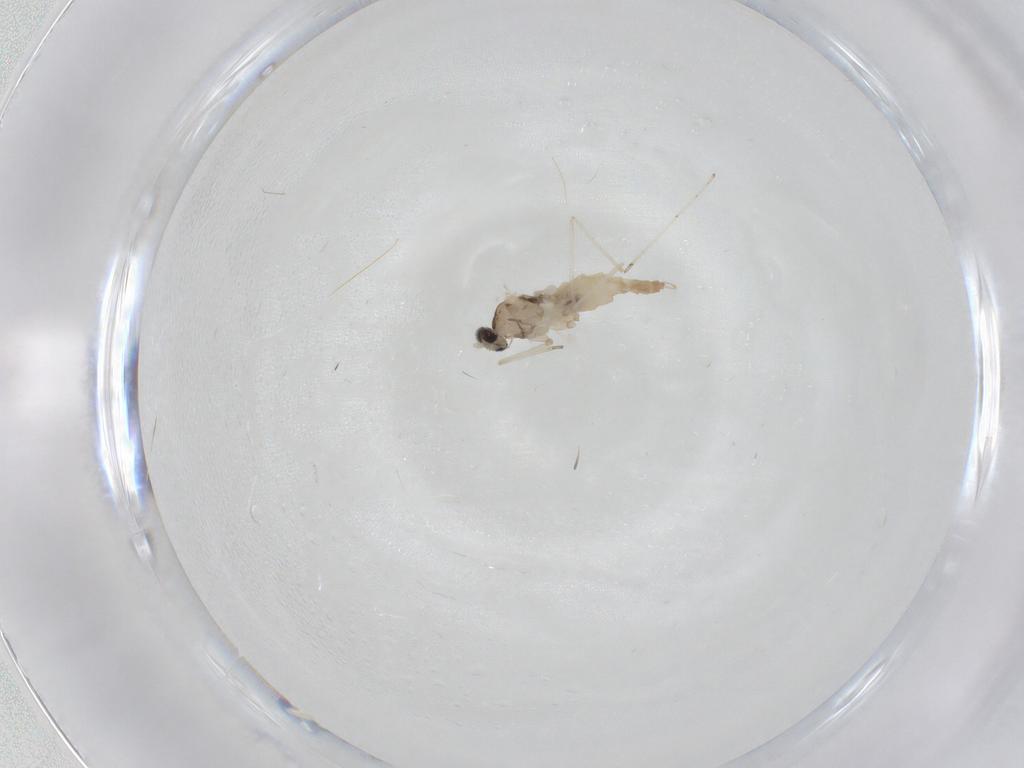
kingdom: Animalia
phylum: Arthropoda
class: Insecta
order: Diptera
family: Cecidomyiidae
